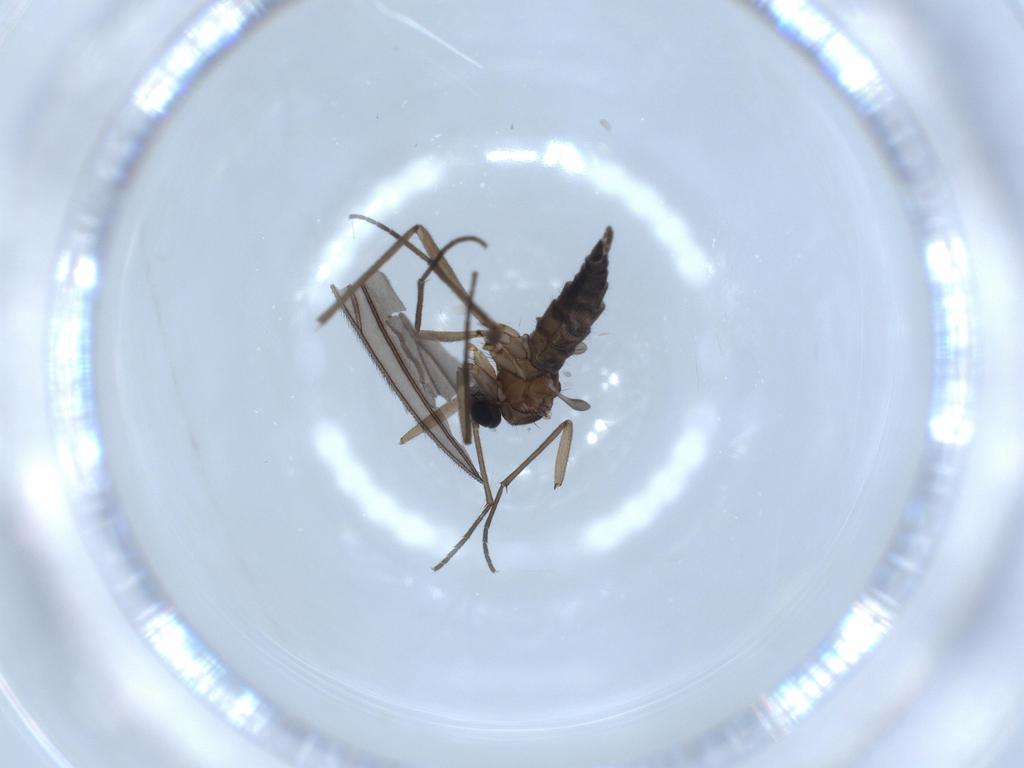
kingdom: Animalia
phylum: Arthropoda
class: Insecta
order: Diptera
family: Sciaridae
